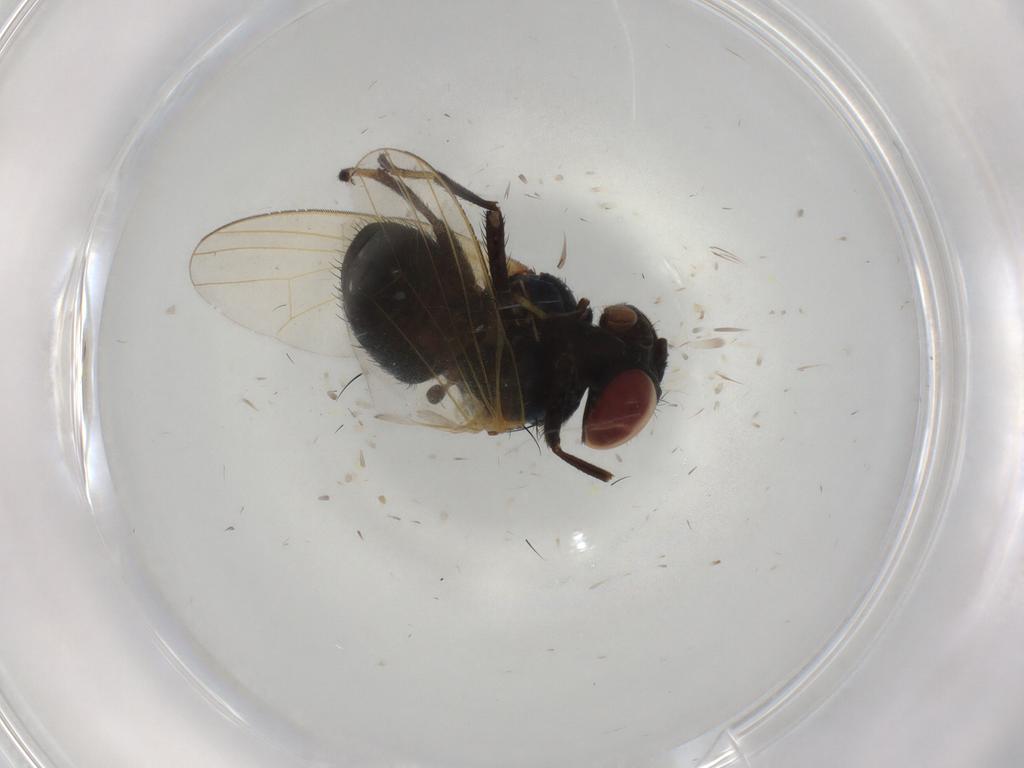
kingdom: Animalia
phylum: Arthropoda
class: Insecta
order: Diptera
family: Lonchaeidae
